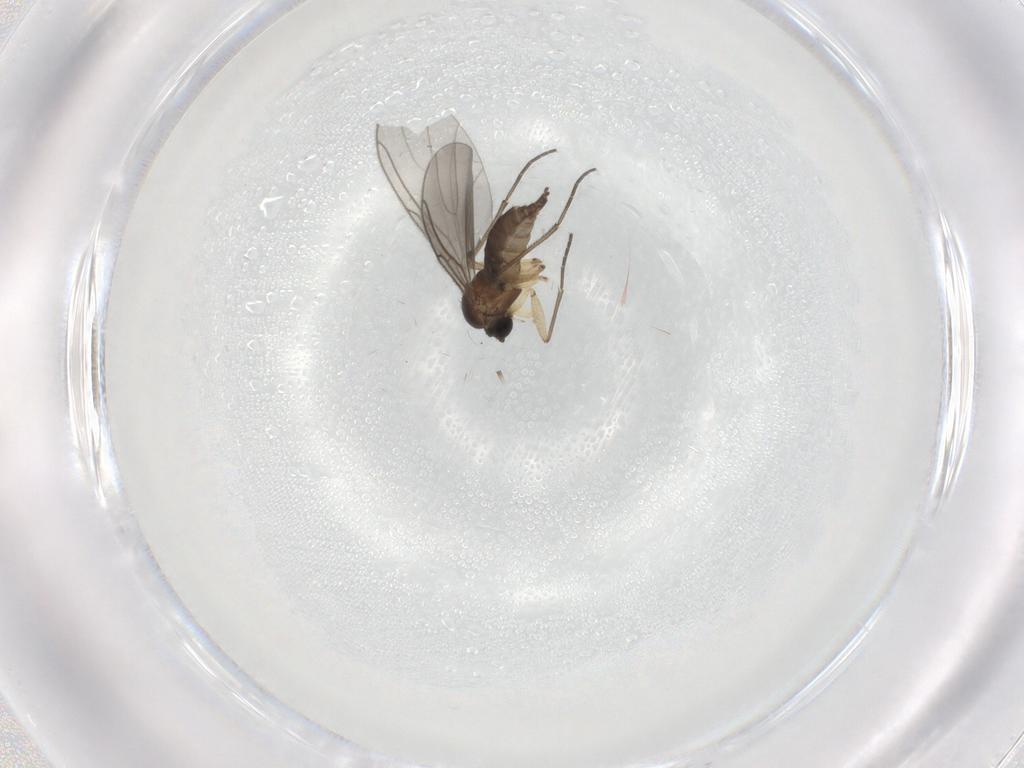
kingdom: Animalia
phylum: Arthropoda
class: Insecta
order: Diptera
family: Sciaridae
